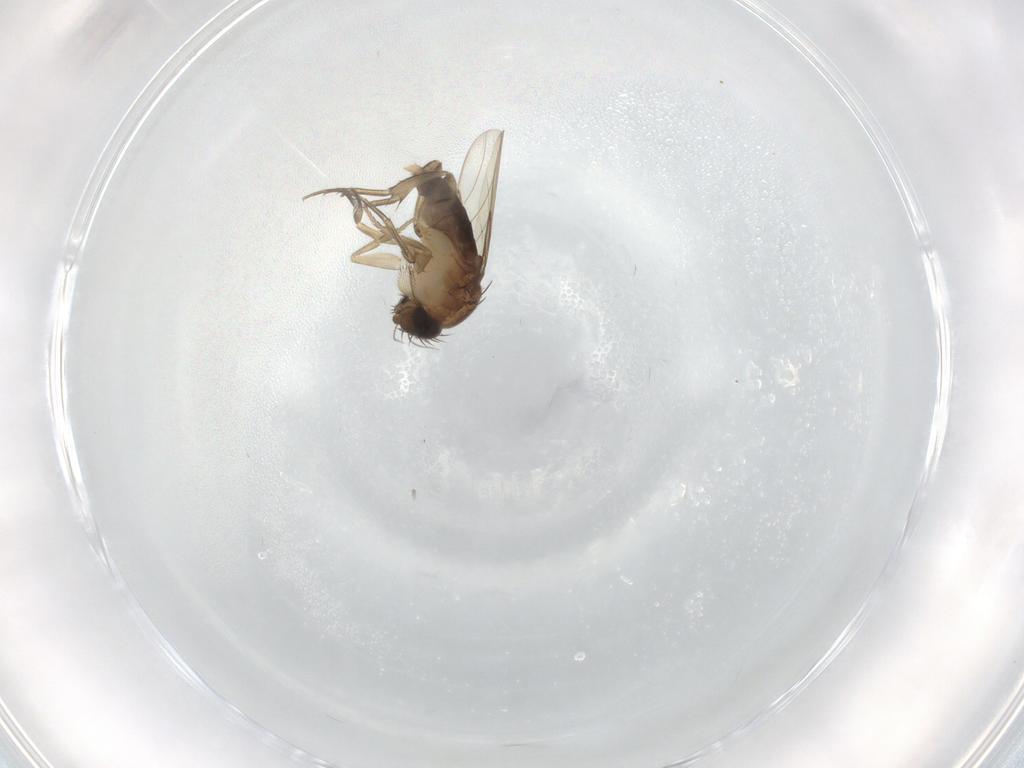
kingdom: Animalia
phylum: Arthropoda
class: Insecta
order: Diptera
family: Phoridae
